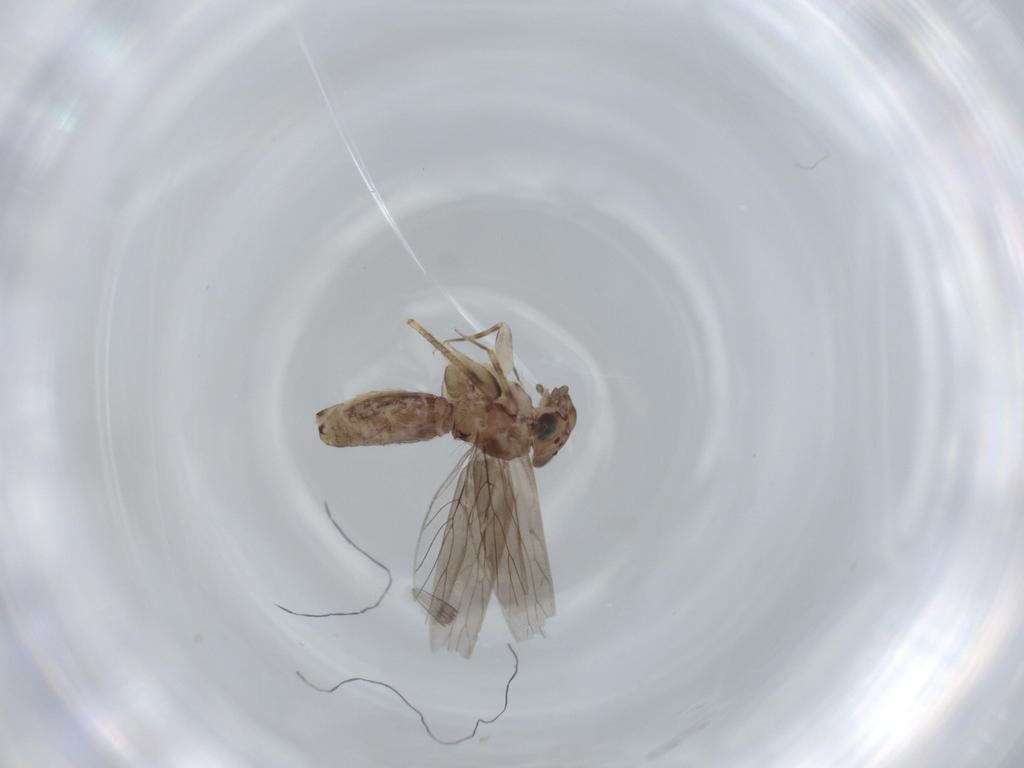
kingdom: Animalia
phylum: Arthropoda
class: Insecta
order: Psocodea
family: Lepidopsocidae
